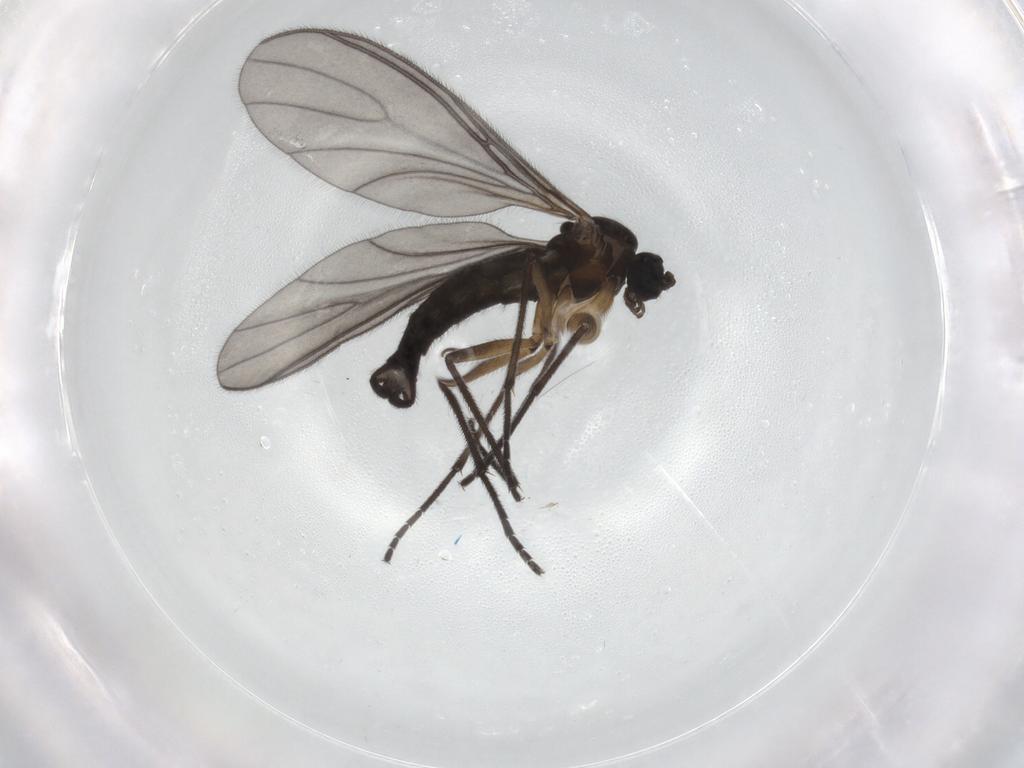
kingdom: Animalia
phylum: Arthropoda
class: Insecta
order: Diptera
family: Sciaridae
